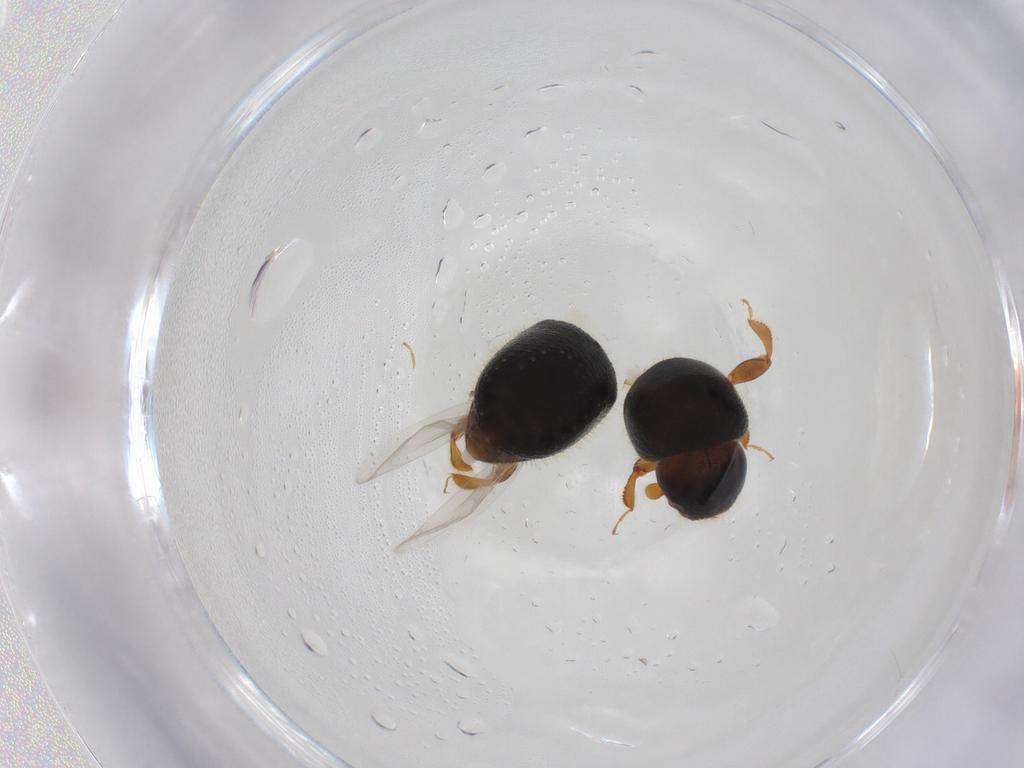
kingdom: Animalia
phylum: Arthropoda
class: Insecta
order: Coleoptera
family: Curculionidae
